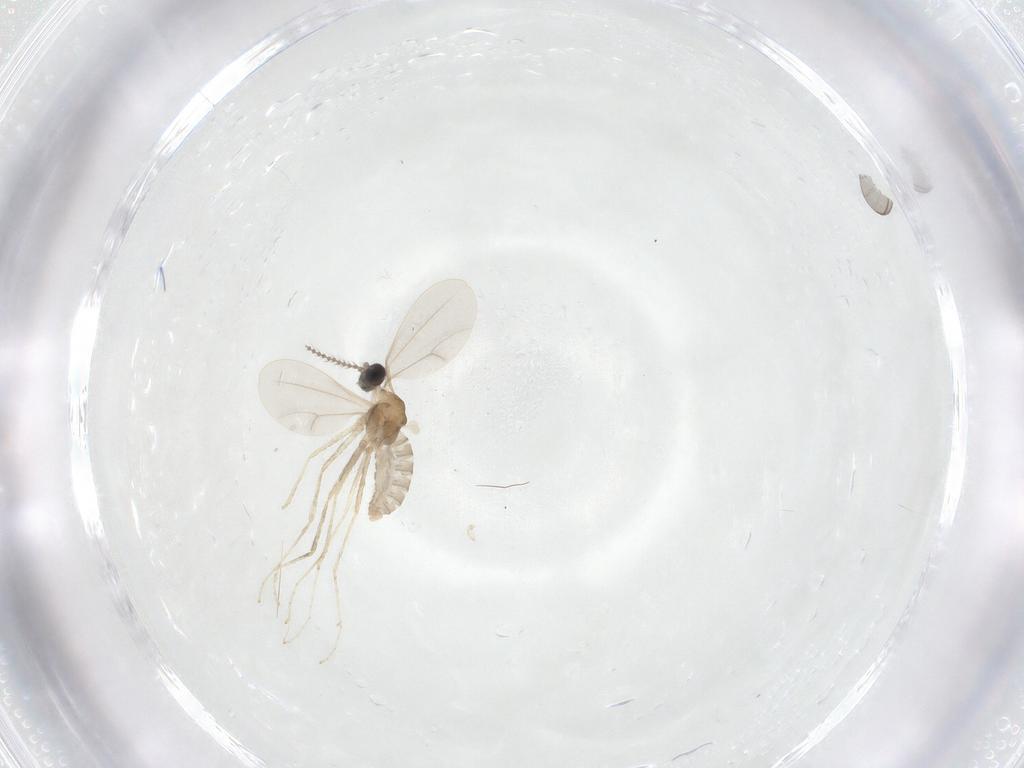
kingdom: Animalia
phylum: Arthropoda
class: Insecta
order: Diptera
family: Cecidomyiidae
